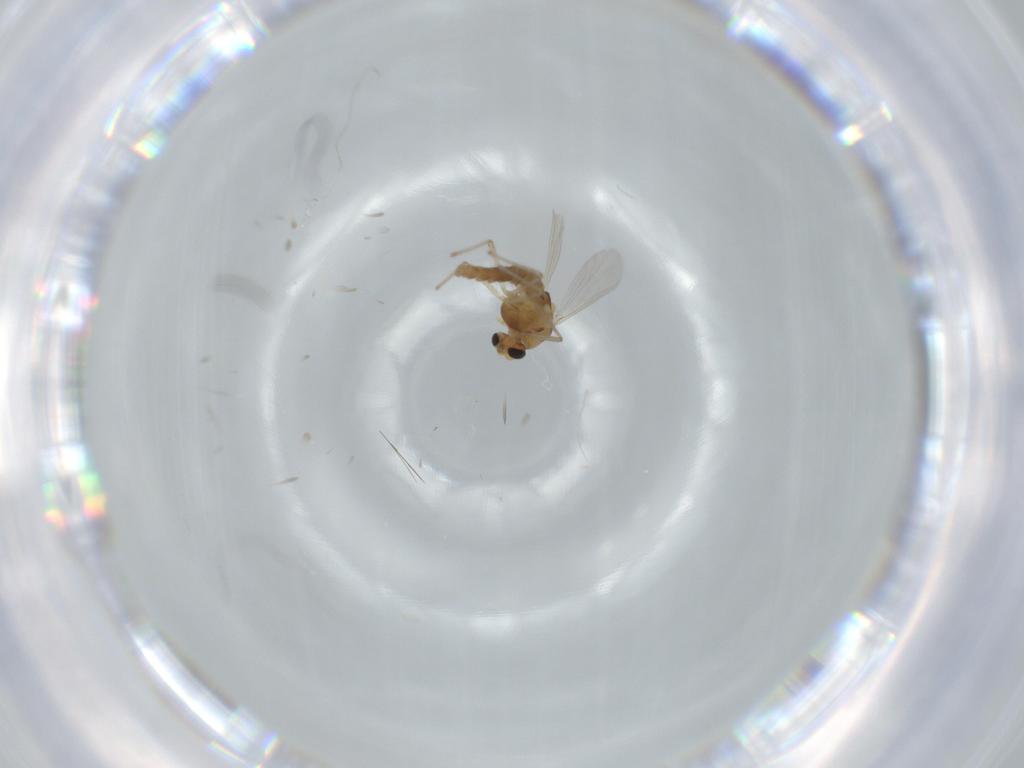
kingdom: Animalia
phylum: Arthropoda
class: Insecta
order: Diptera
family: Chironomidae
